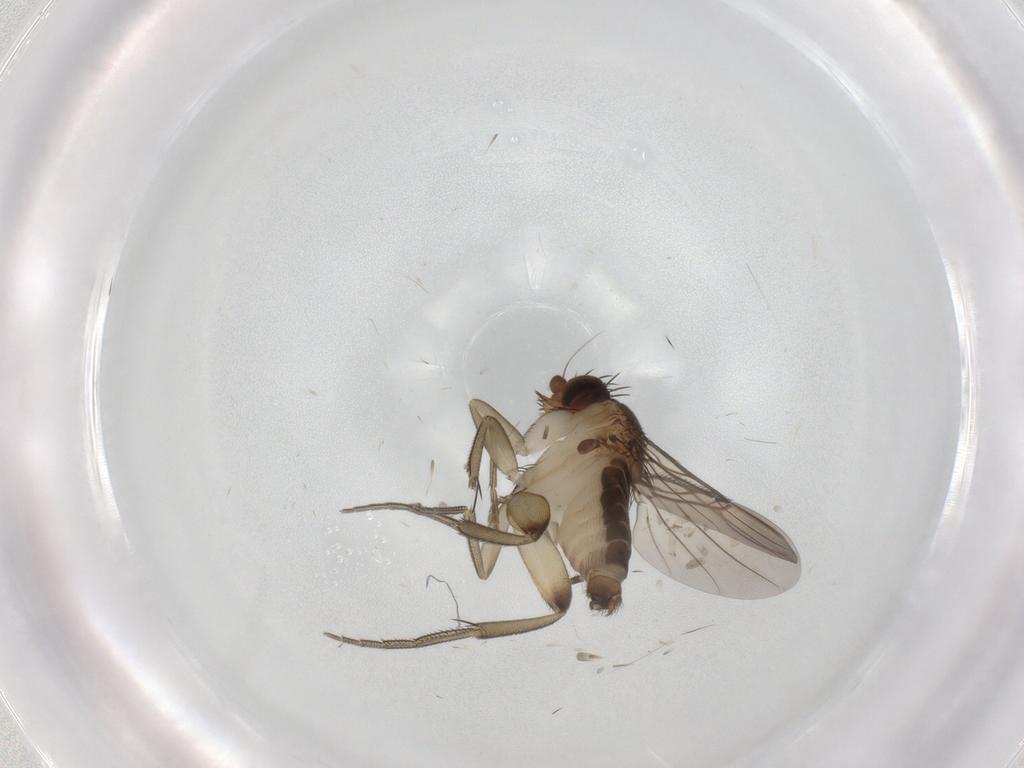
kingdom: Animalia
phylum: Arthropoda
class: Insecta
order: Diptera
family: Phoridae
